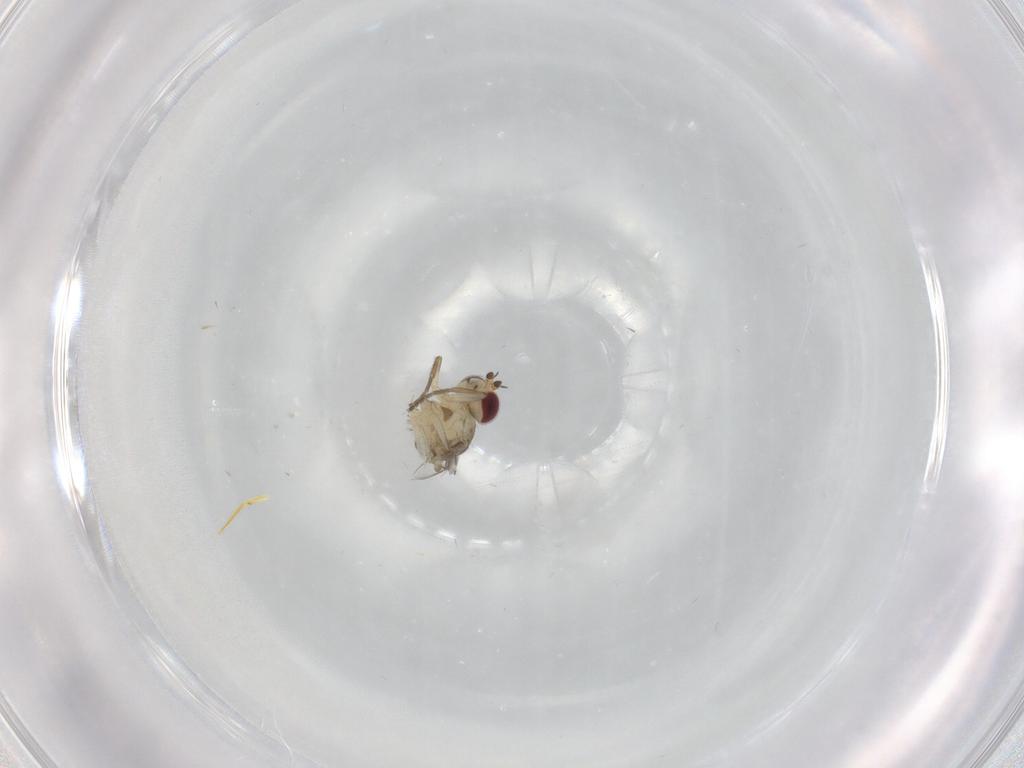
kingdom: Animalia
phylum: Arthropoda
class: Insecta
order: Diptera
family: Agromyzidae
